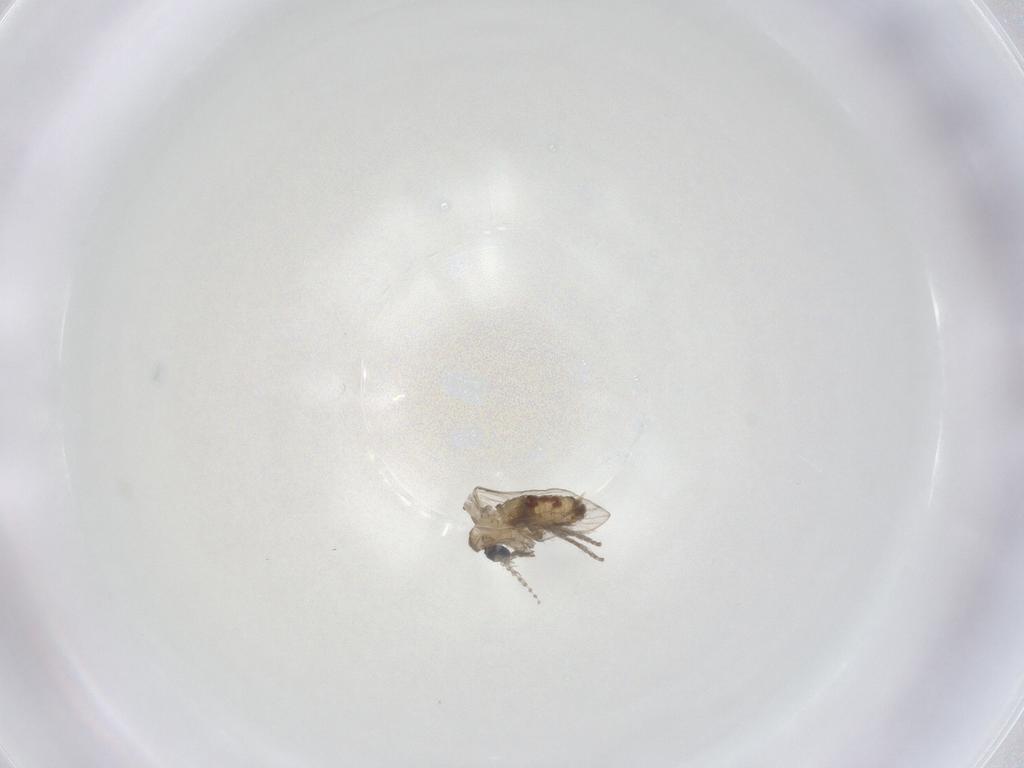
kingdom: Animalia
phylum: Arthropoda
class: Insecta
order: Diptera
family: Psychodidae
